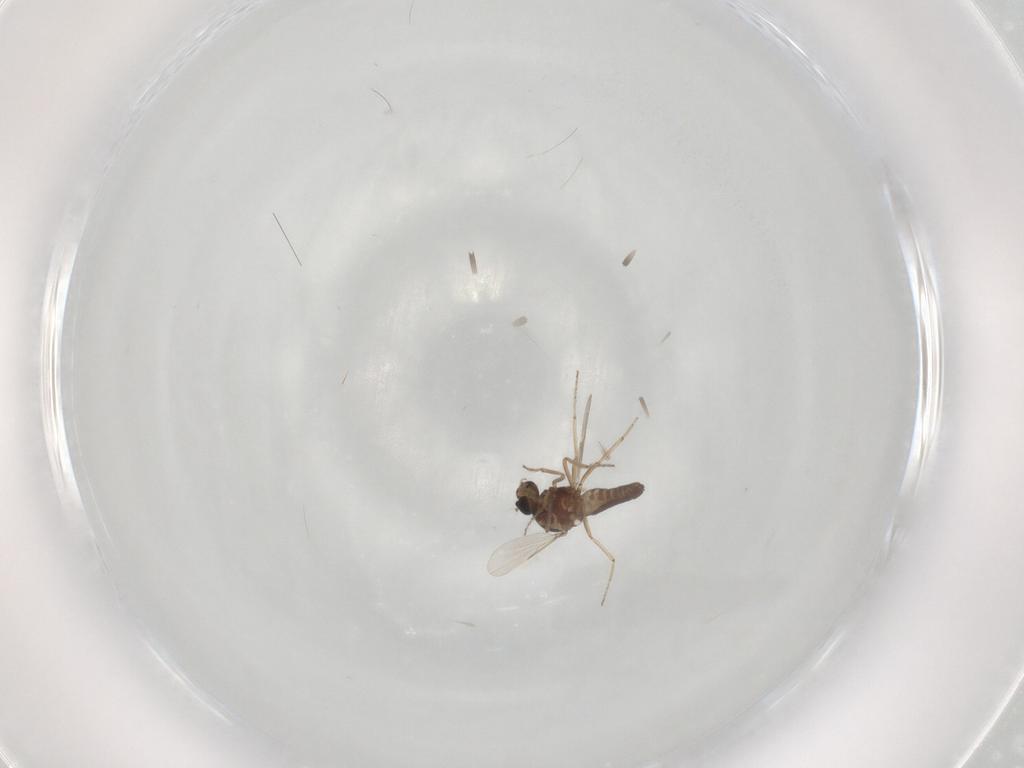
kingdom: Animalia
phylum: Arthropoda
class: Insecta
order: Diptera
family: Ceratopogonidae
